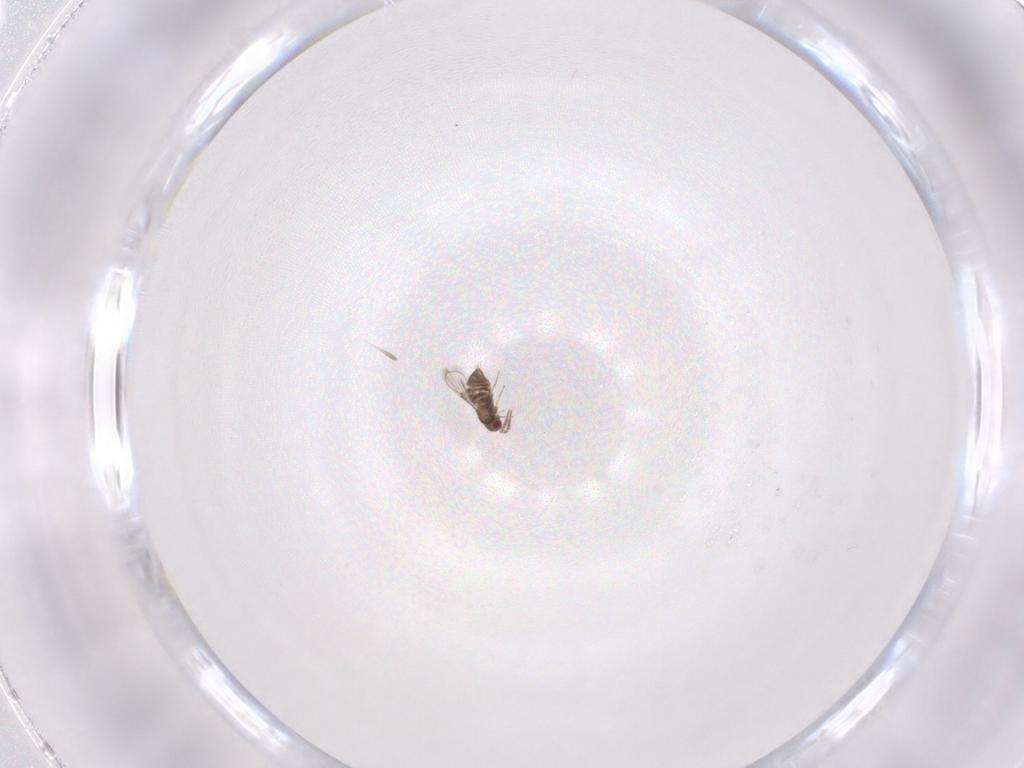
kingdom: Animalia
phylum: Arthropoda
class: Insecta
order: Hymenoptera
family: Trichogrammatidae
